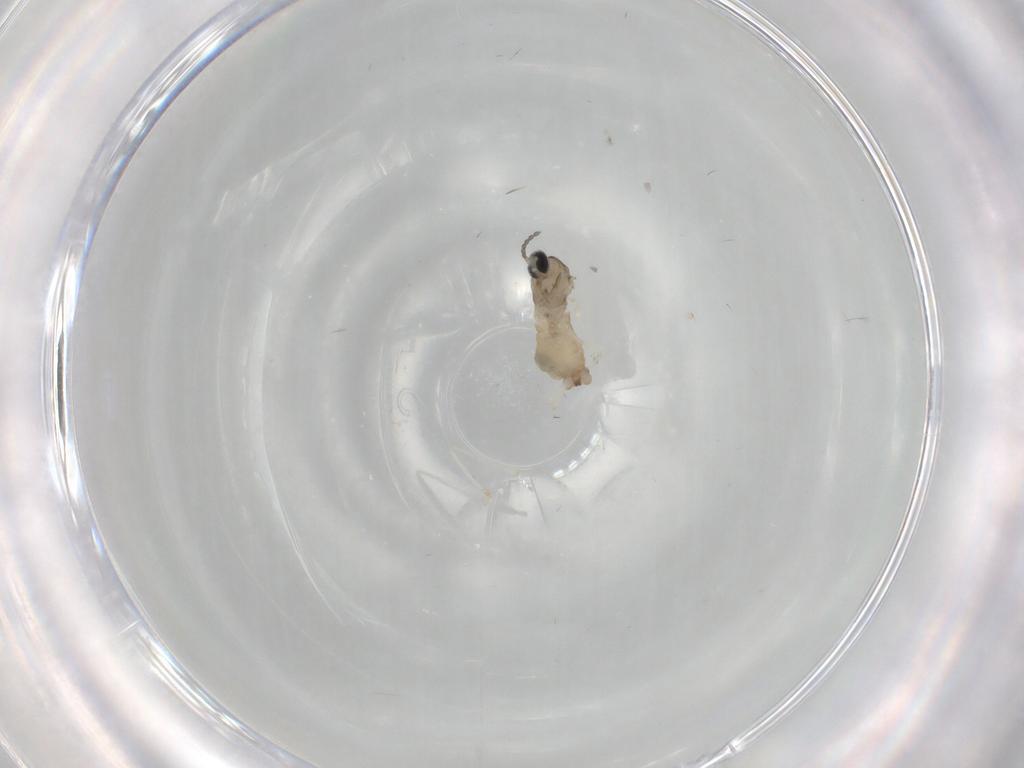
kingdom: Animalia
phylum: Arthropoda
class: Insecta
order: Diptera
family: Cecidomyiidae
